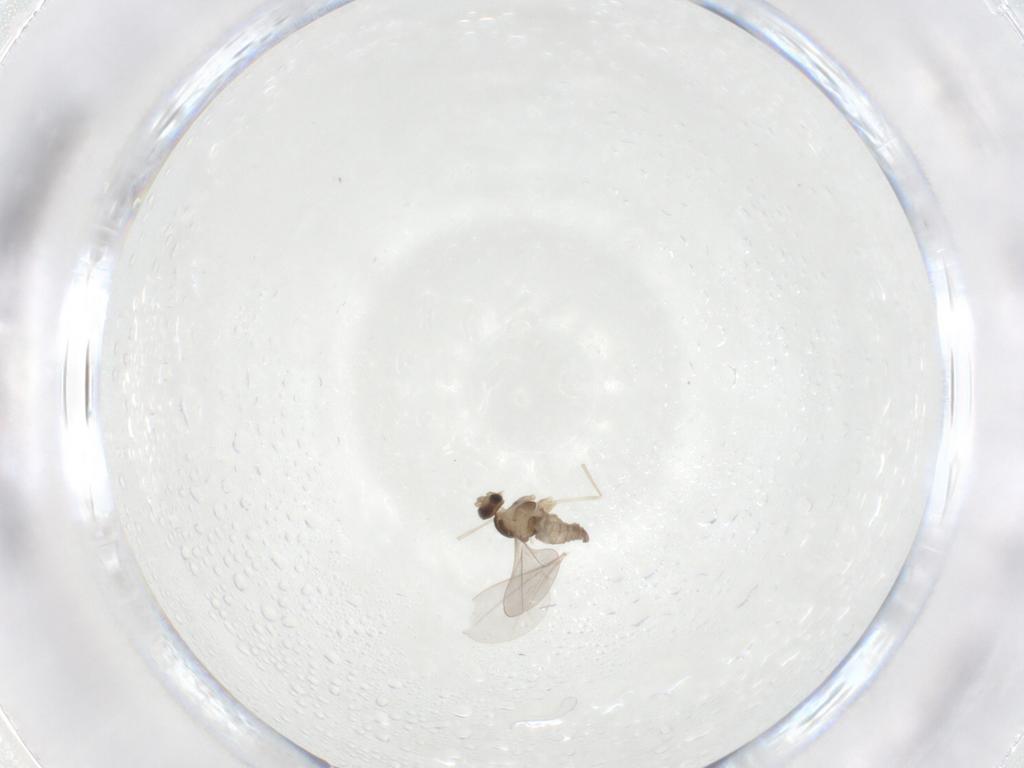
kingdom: Animalia
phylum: Arthropoda
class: Insecta
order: Diptera
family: Cecidomyiidae
